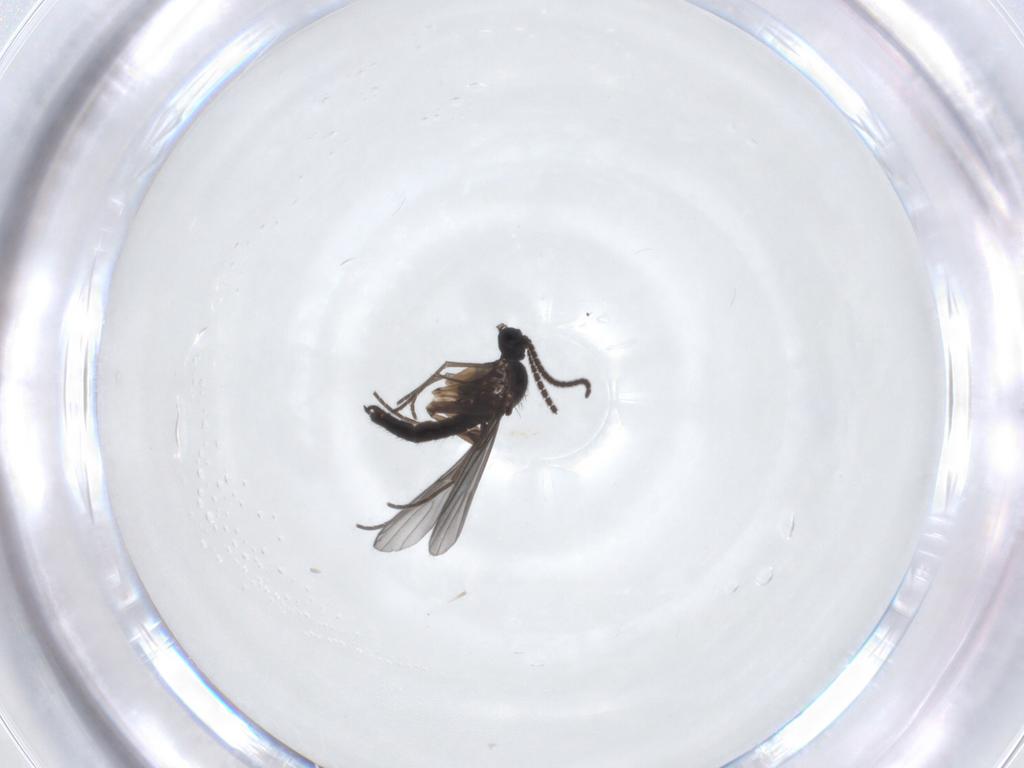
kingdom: Animalia
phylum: Arthropoda
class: Insecta
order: Diptera
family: Sciaridae
